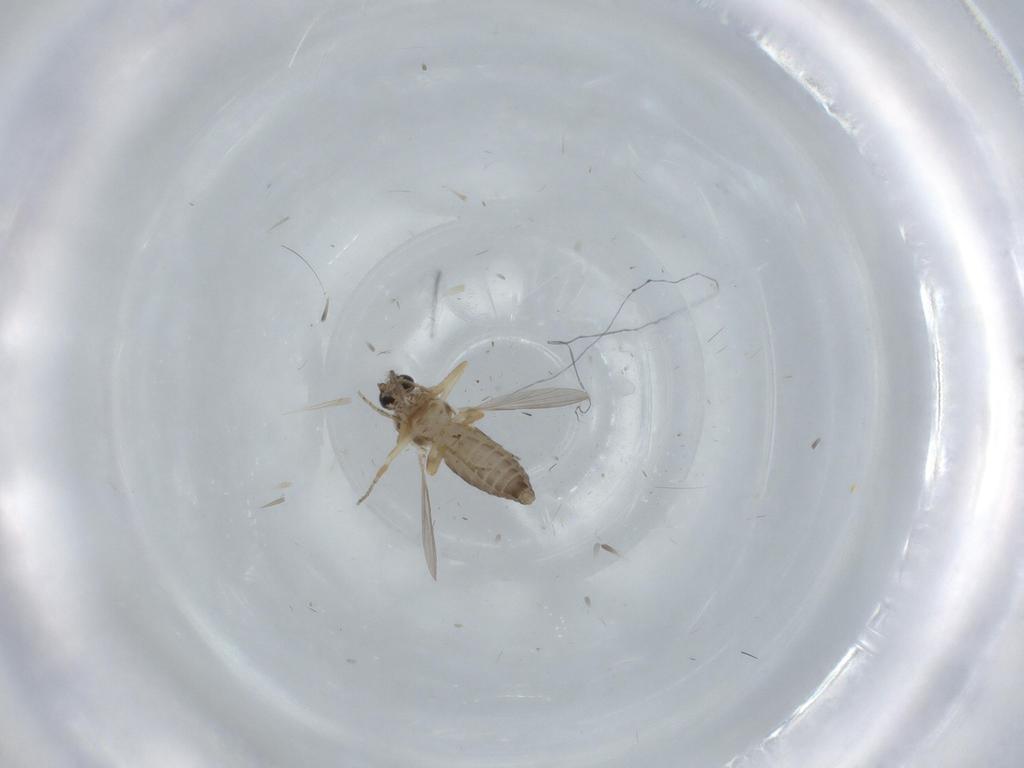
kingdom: Animalia
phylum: Arthropoda
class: Insecta
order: Diptera
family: Ceratopogonidae
